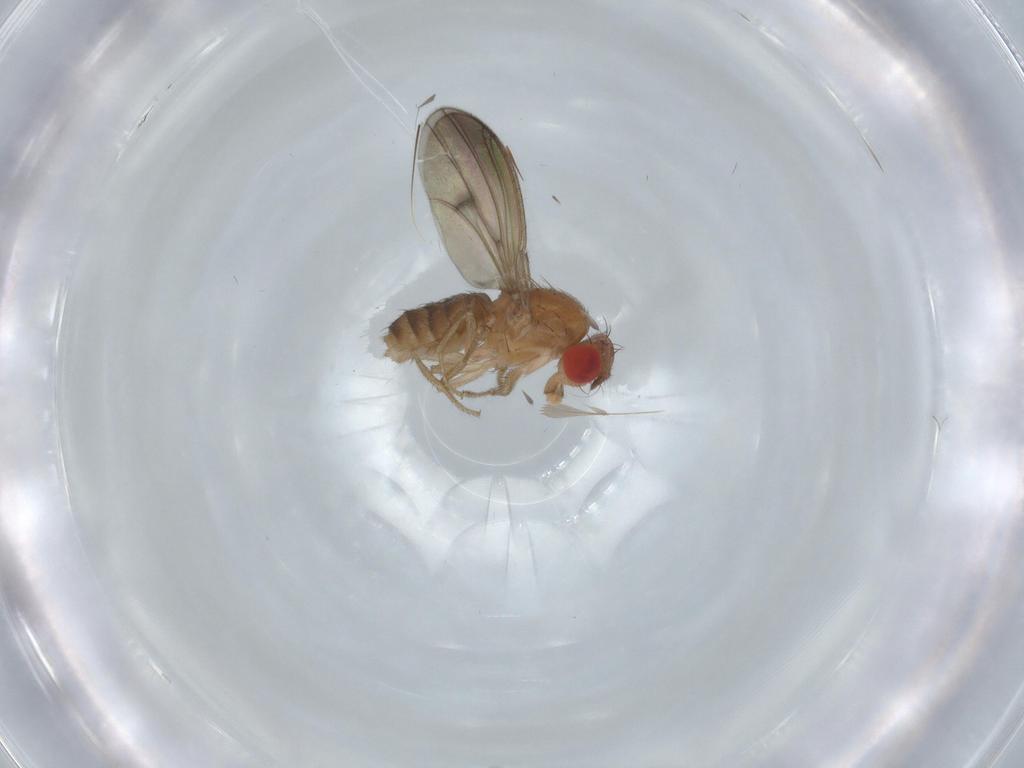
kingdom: Animalia
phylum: Arthropoda
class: Insecta
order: Diptera
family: Drosophilidae
